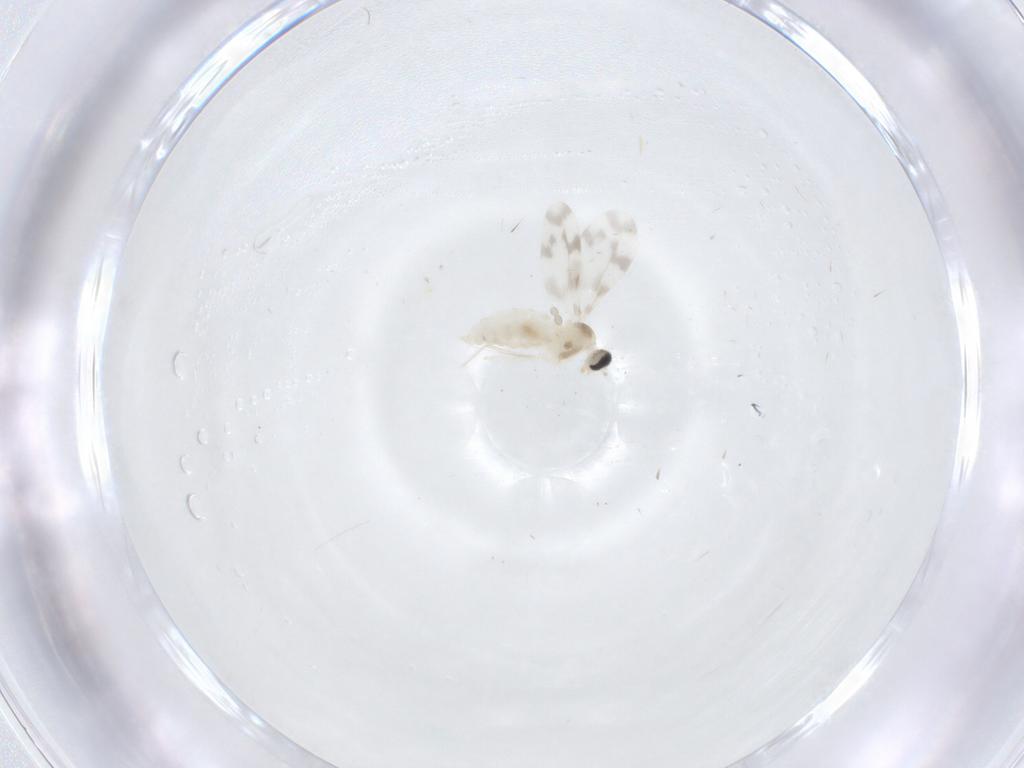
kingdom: Animalia
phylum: Arthropoda
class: Insecta
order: Diptera
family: Cecidomyiidae
